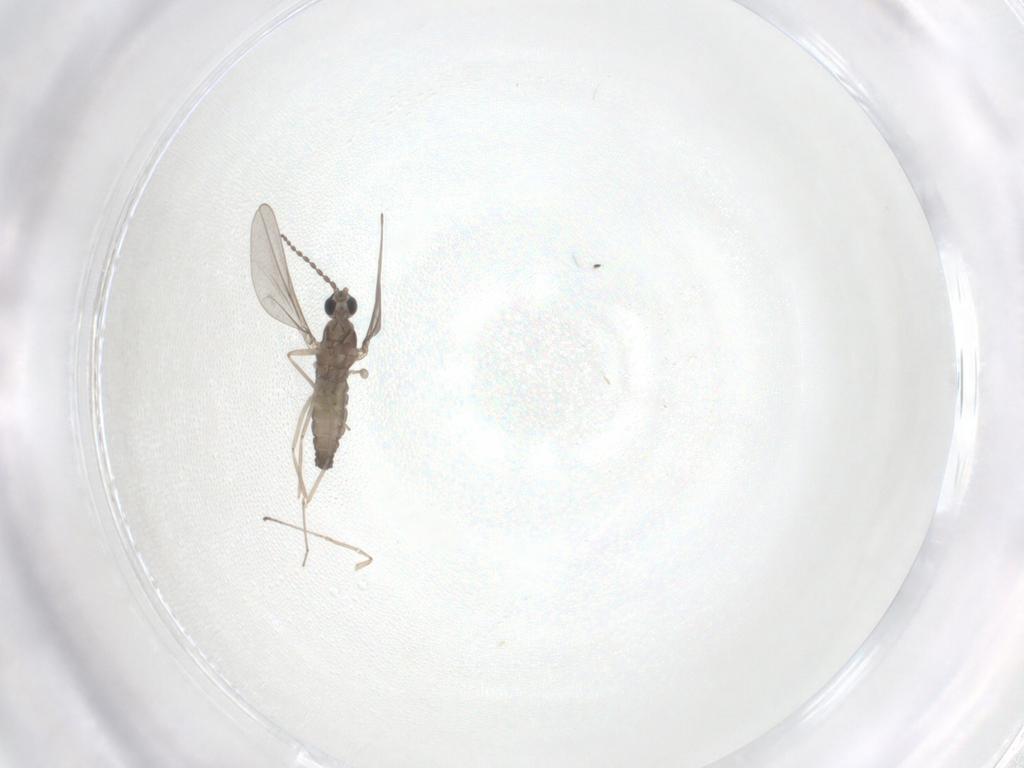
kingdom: Animalia
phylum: Arthropoda
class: Insecta
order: Diptera
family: Cecidomyiidae
